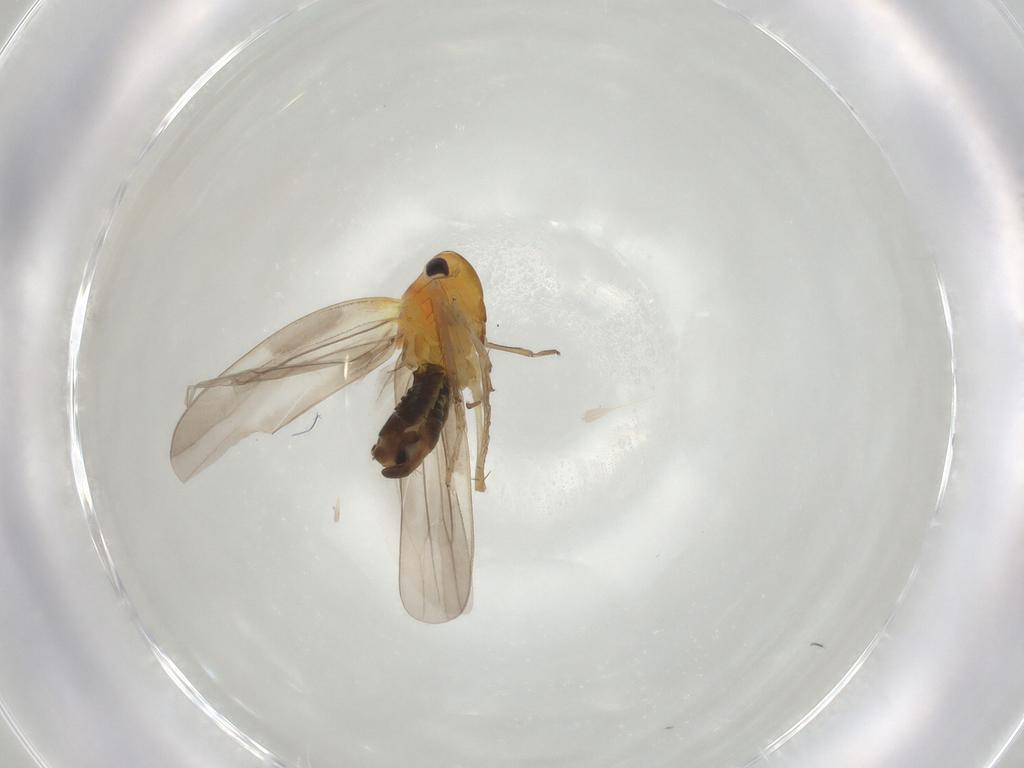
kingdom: Animalia
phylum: Arthropoda
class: Insecta
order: Hemiptera
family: Cicadellidae
